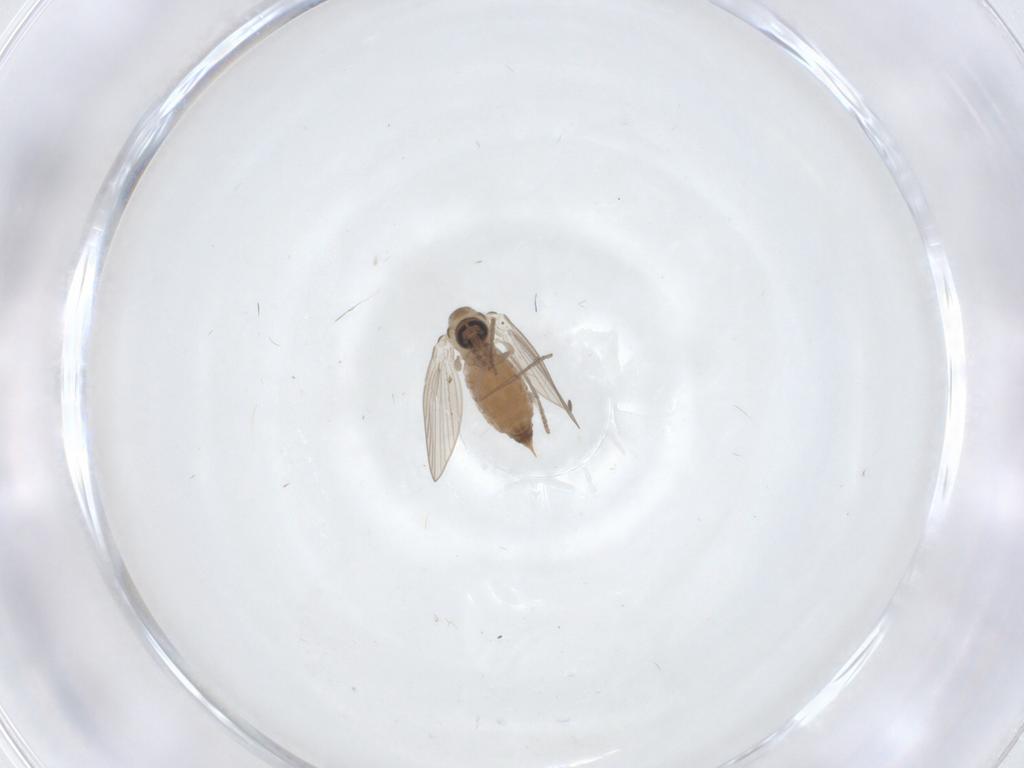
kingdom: Animalia
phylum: Arthropoda
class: Insecta
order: Diptera
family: Psychodidae
